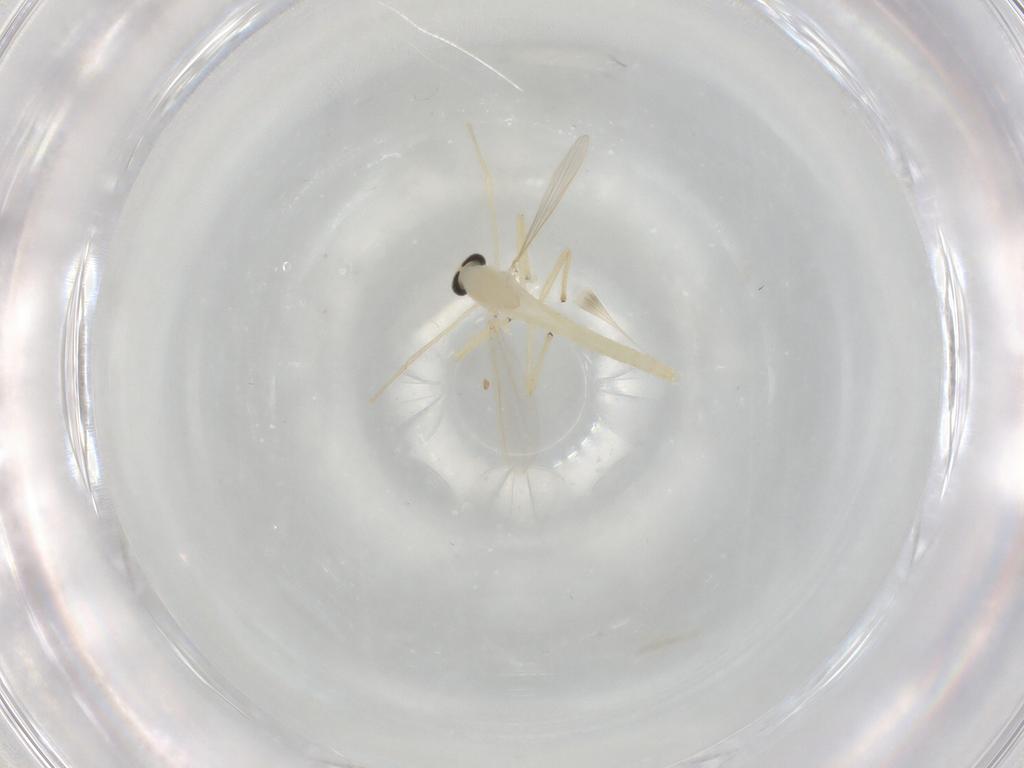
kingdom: Animalia
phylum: Arthropoda
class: Insecta
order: Diptera
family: Chironomidae
